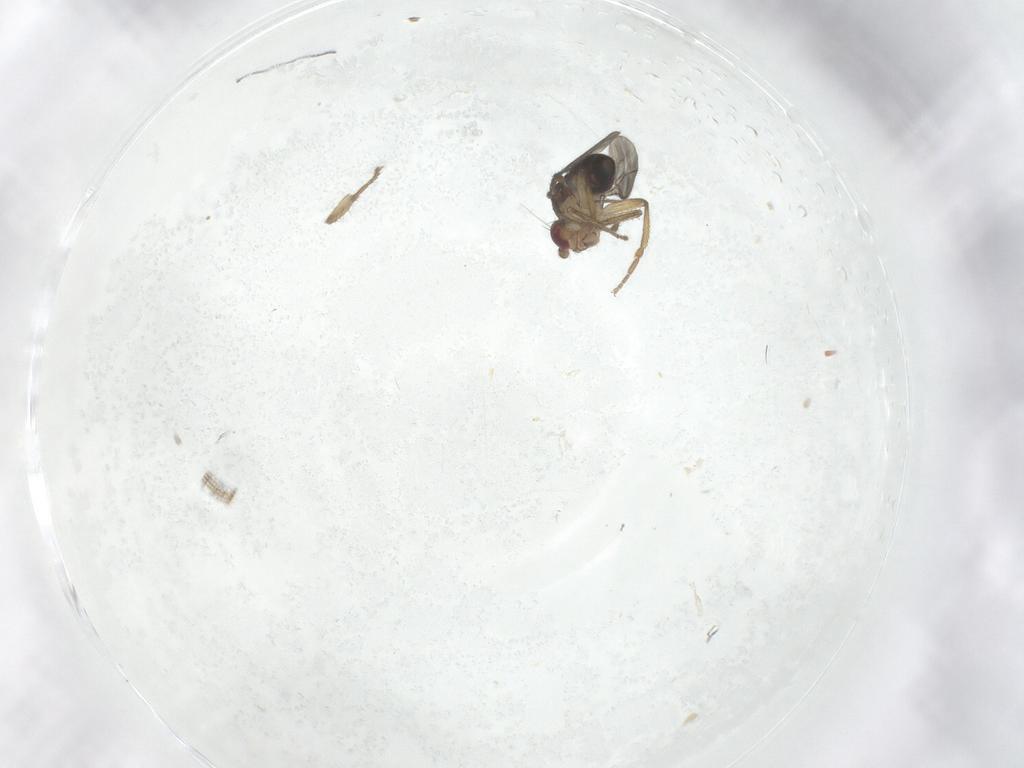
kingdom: Animalia
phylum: Arthropoda
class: Insecta
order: Diptera
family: Sphaeroceridae
